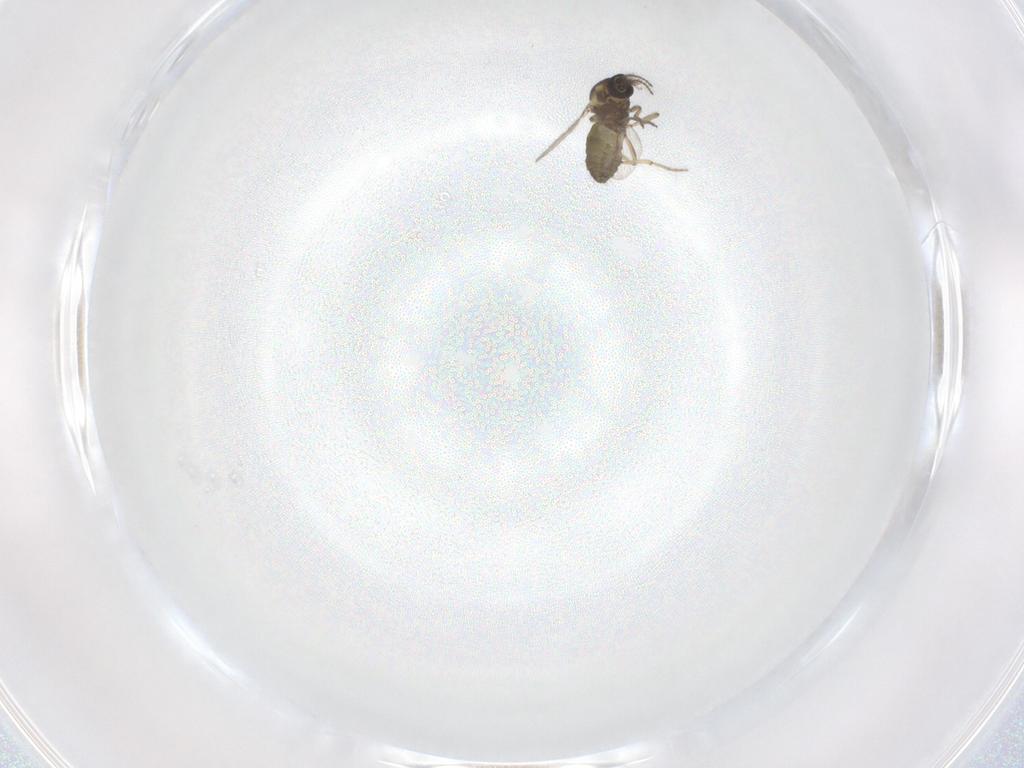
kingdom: Animalia
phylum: Arthropoda
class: Insecta
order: Diptera
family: Ceratopogonidae
